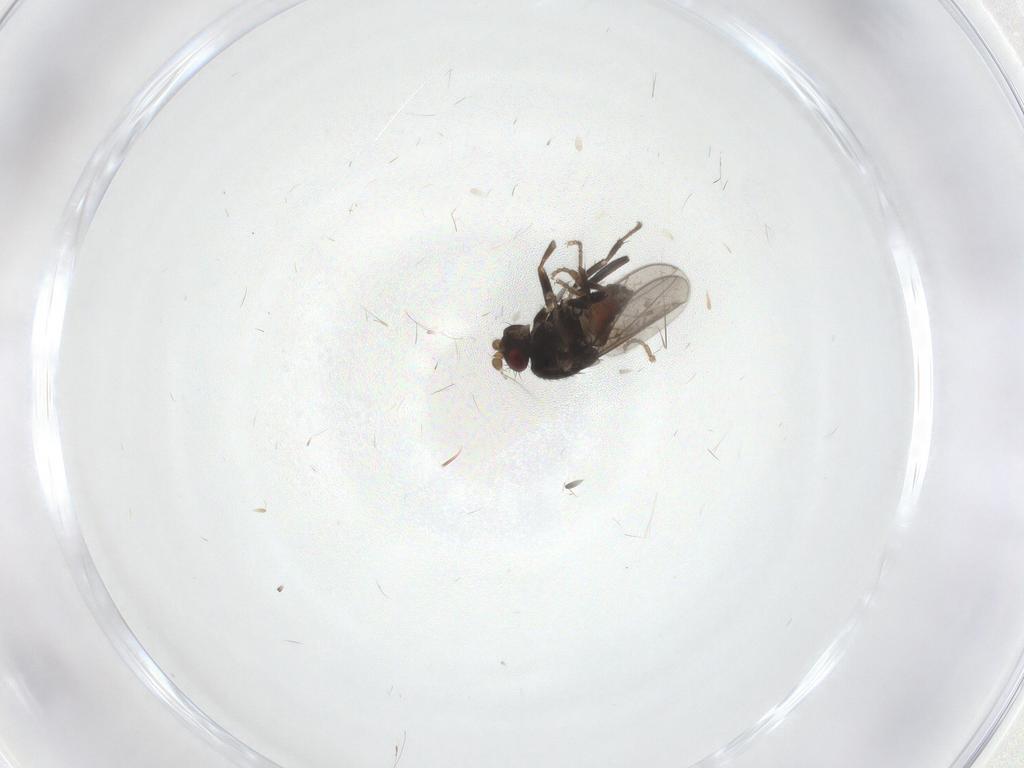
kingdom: Animalia
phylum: Arthropoda
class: Insecta
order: Diptera
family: Sphaeroceridae
